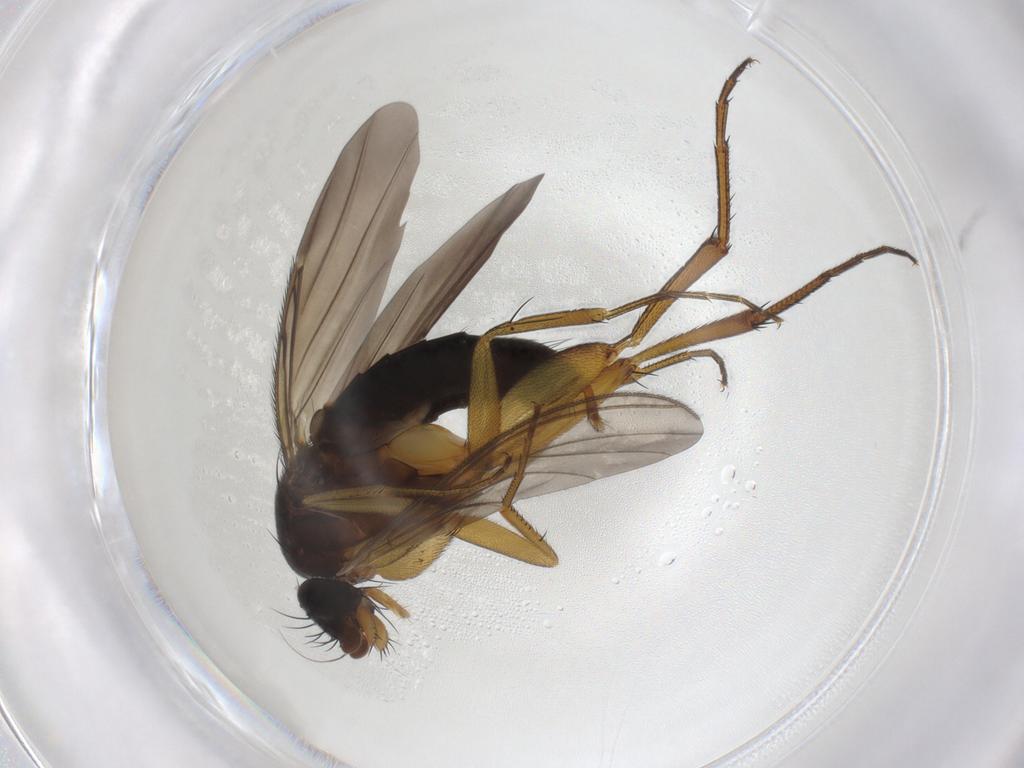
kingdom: Animalia
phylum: Arthropoda
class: Insecta
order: Diptera
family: Phoridae
